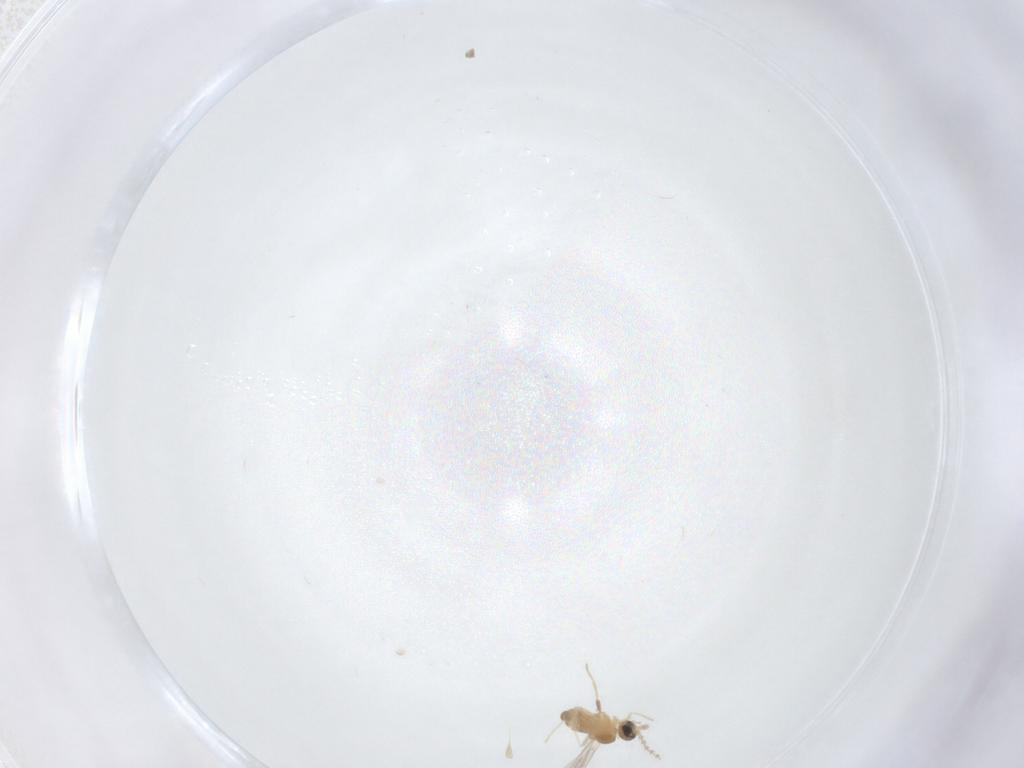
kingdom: Animalia
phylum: Arthropoda
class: Insecta
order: Diptera
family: Cecidomyiidae
